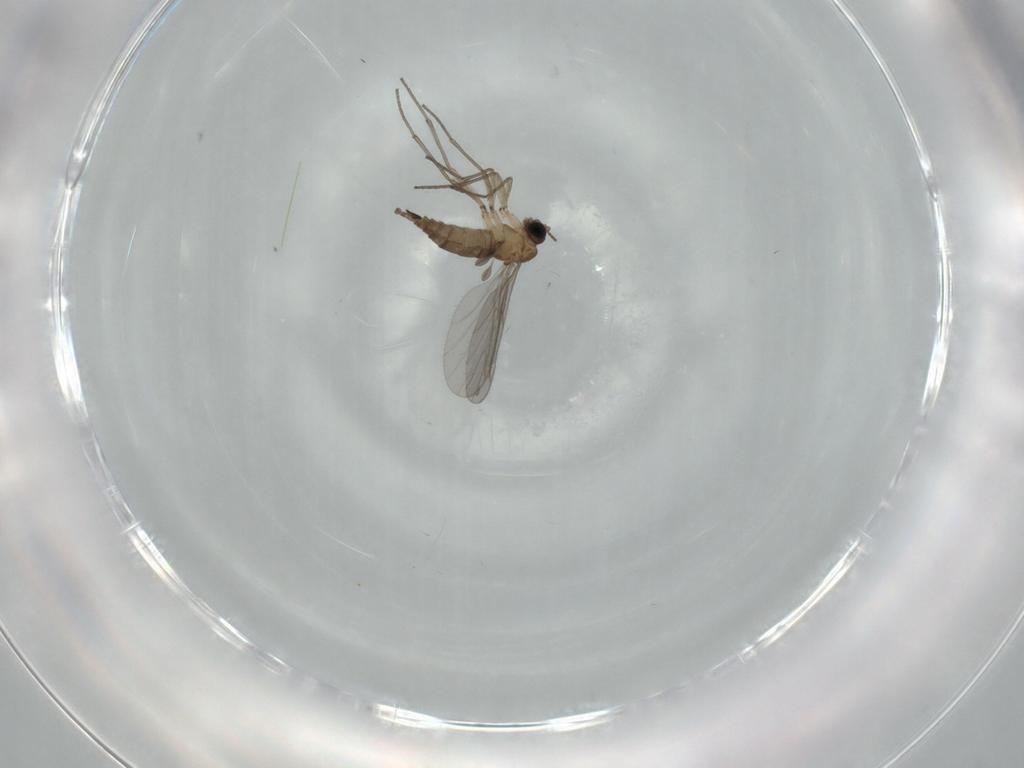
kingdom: Animalia
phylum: Arthropoda
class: Insecta
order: Diptera
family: Sciaridae
